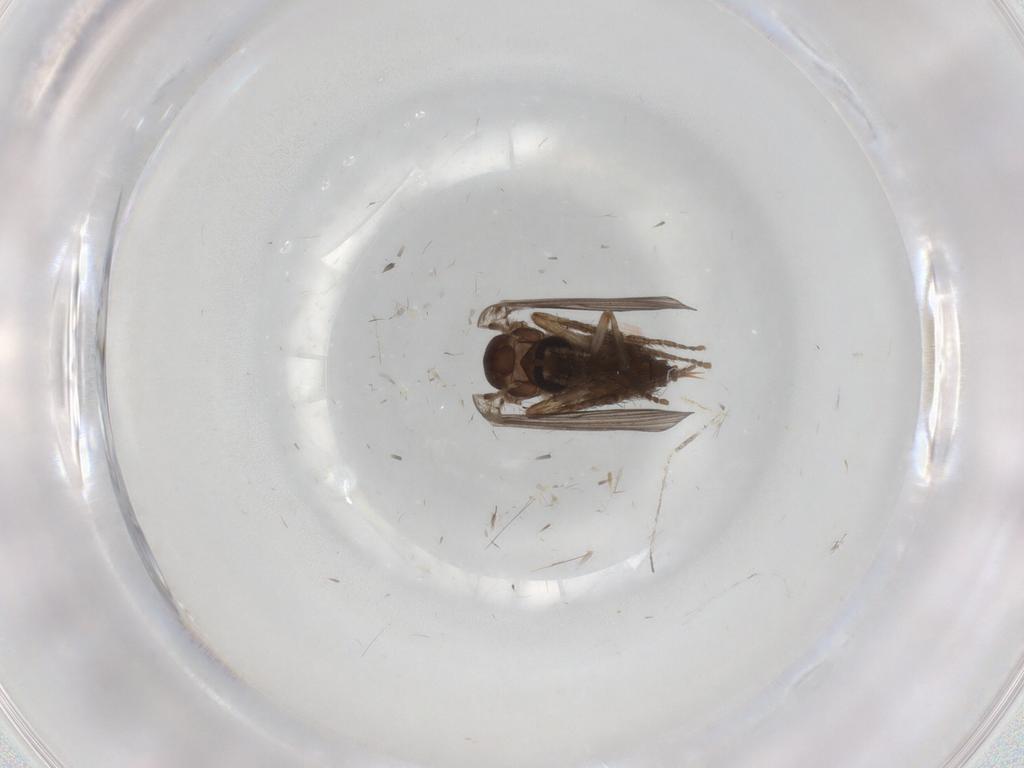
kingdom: Animalia
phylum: Arthropoda
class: Insecta
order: Diptera
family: Psychodidae
